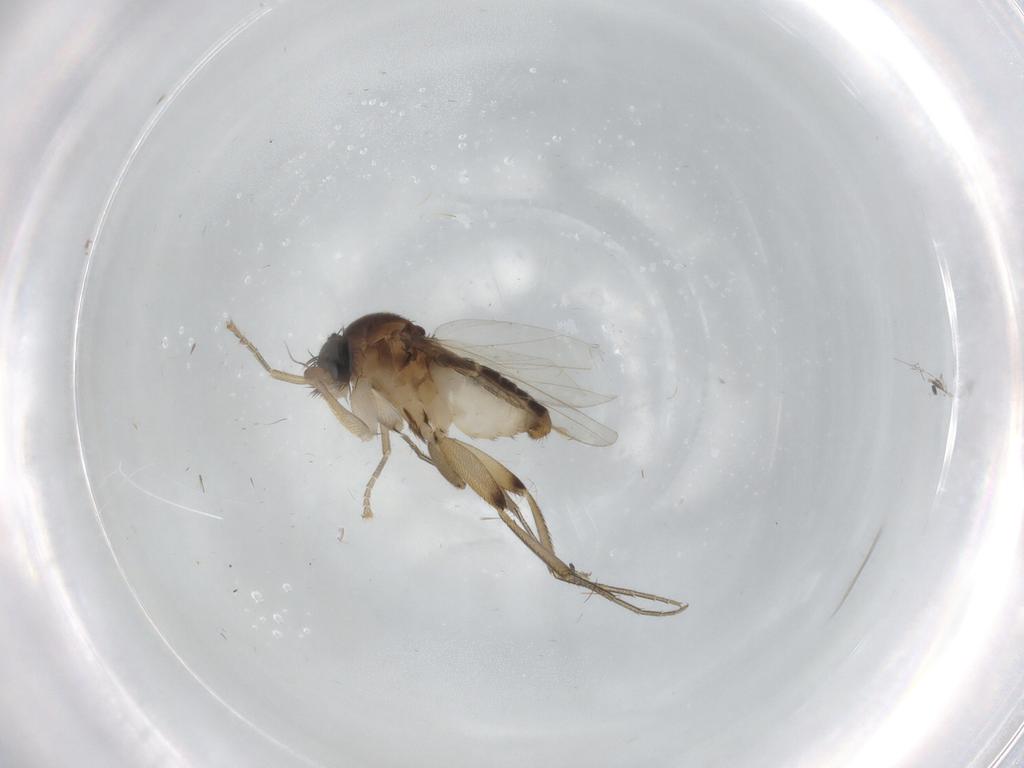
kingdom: Animalia
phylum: Arthropoda
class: Insecta
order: Diptera
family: Phoridae
